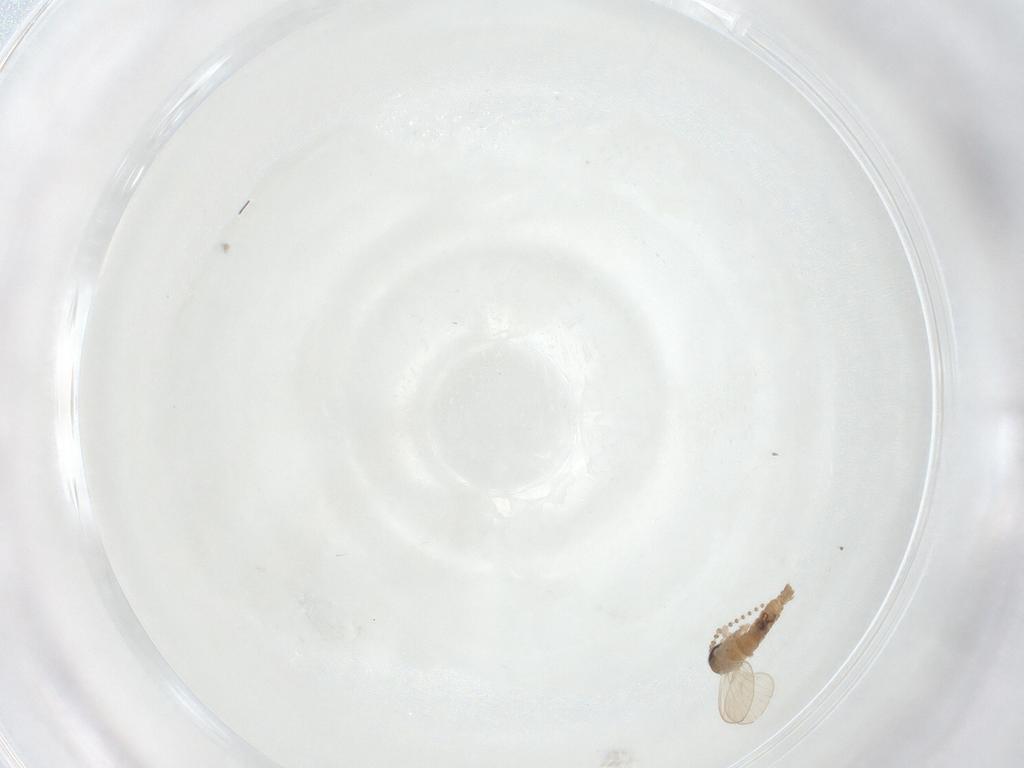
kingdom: Animalia
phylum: Arthropoda
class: Insecta
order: Diptera
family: Psychodidae
